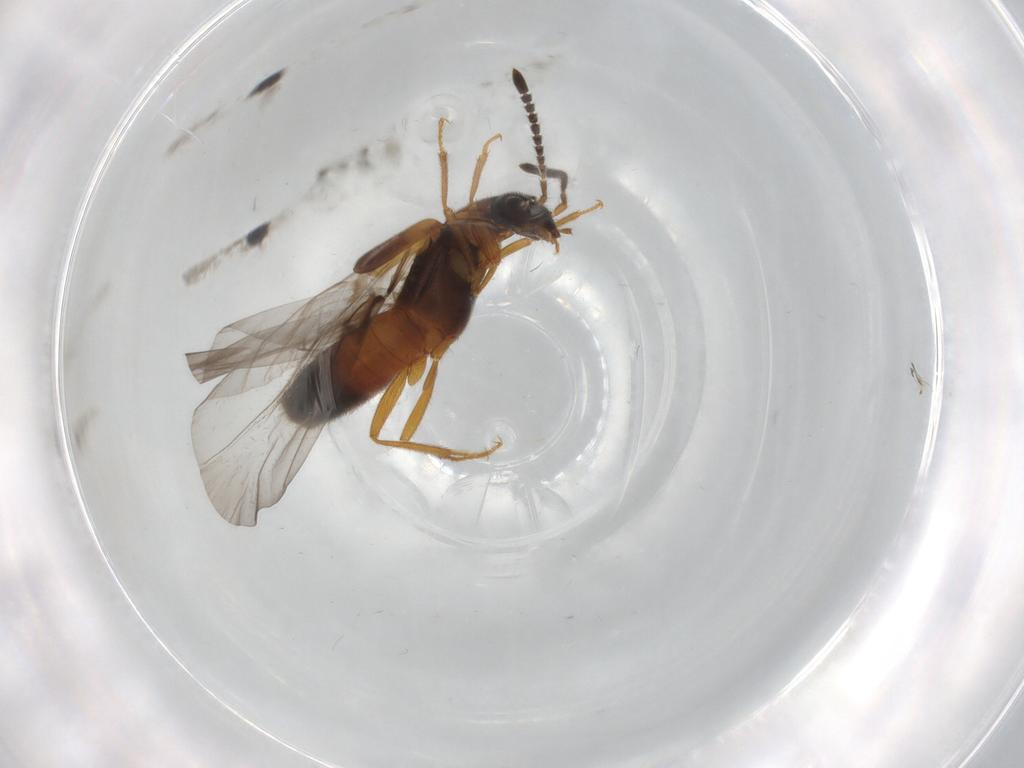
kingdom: Animalia
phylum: Arthropoda
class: Insecta
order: Coleoptera
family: Staphylinidae
